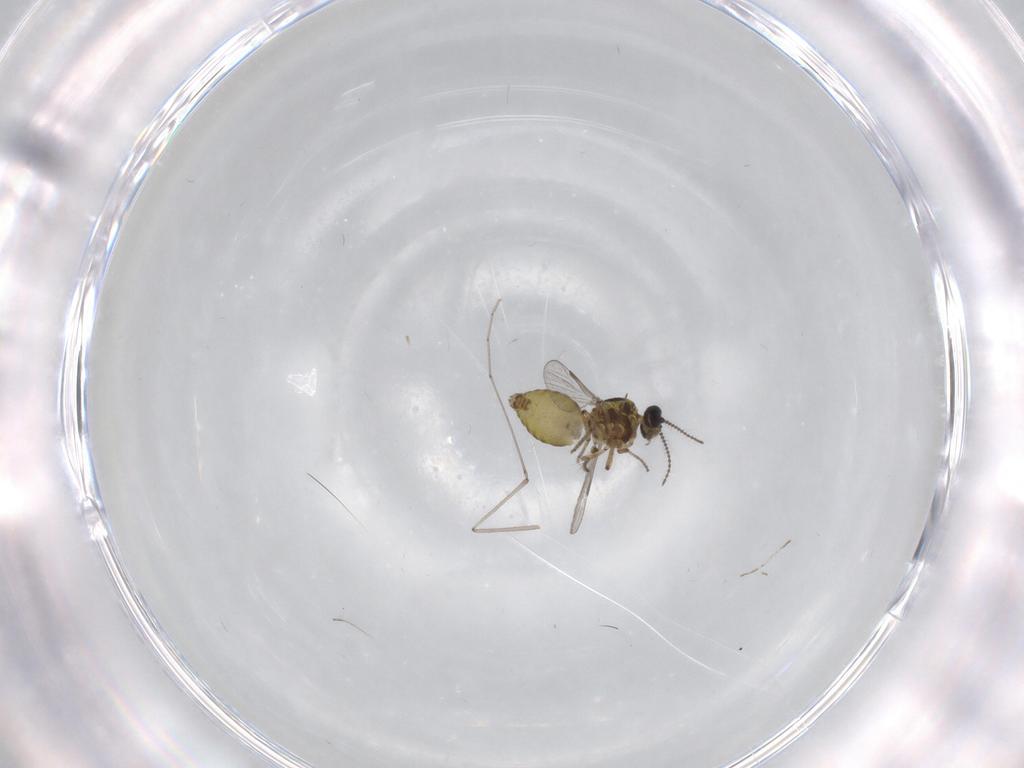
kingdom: Animalia
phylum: Arthropoda
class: Insecta
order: Diptera
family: Ceratopogonidae
